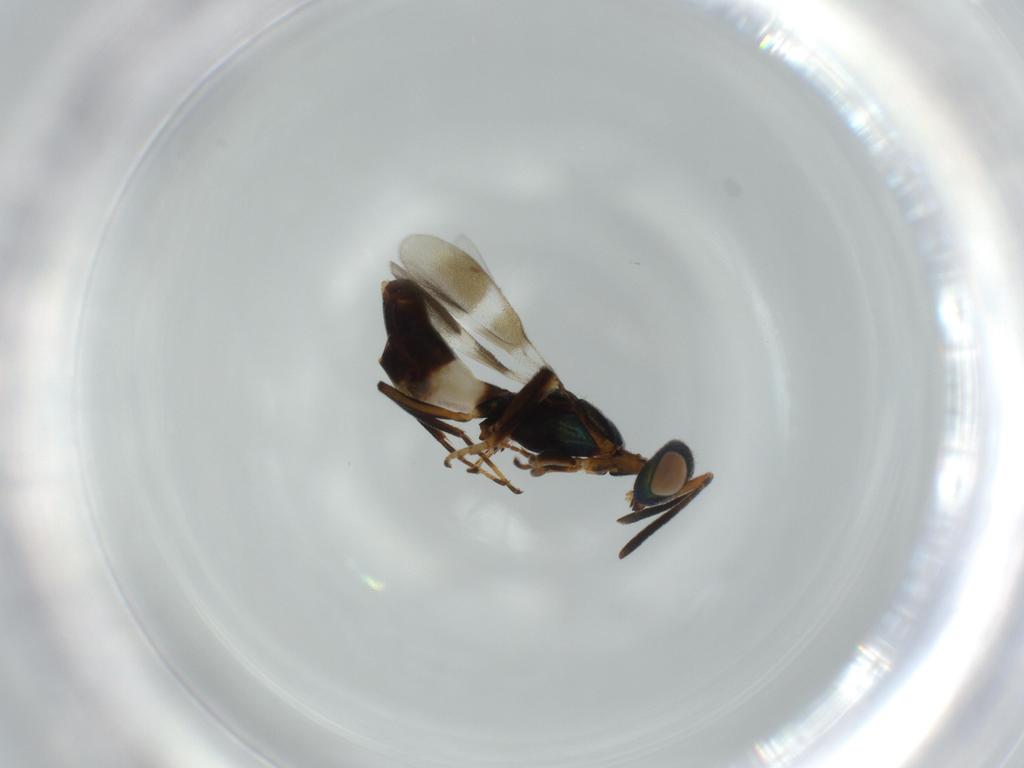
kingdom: Animalia
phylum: Arthropoda
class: Insecta
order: Hymenoptera
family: Eupelmidae
